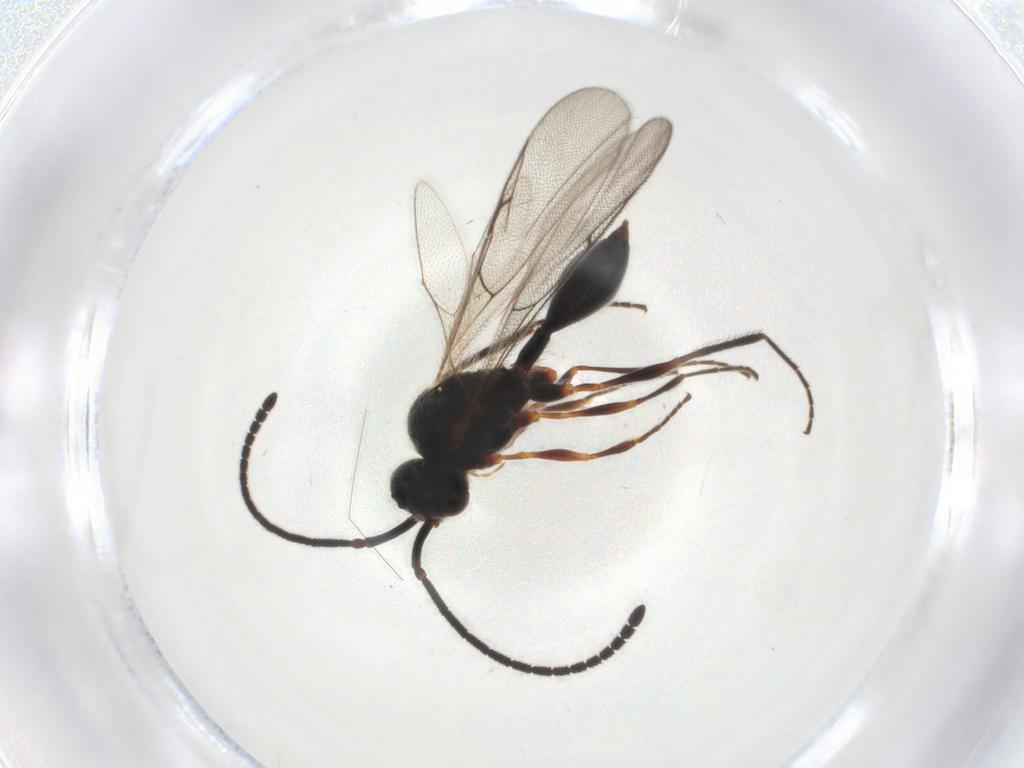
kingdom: Animalia
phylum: Arthropoda
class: Insecta
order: Hymenoptera
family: Diapriidae
